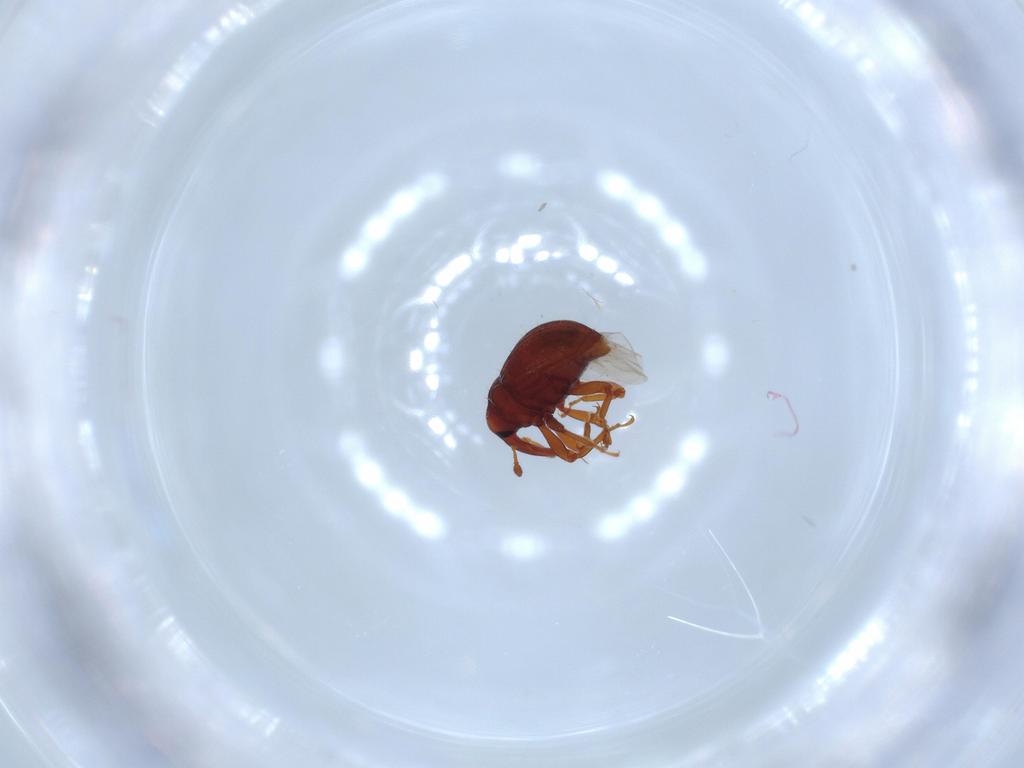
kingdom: Animalia
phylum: Arthropoda
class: Insecta
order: Coleoptera
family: Curculionidae
